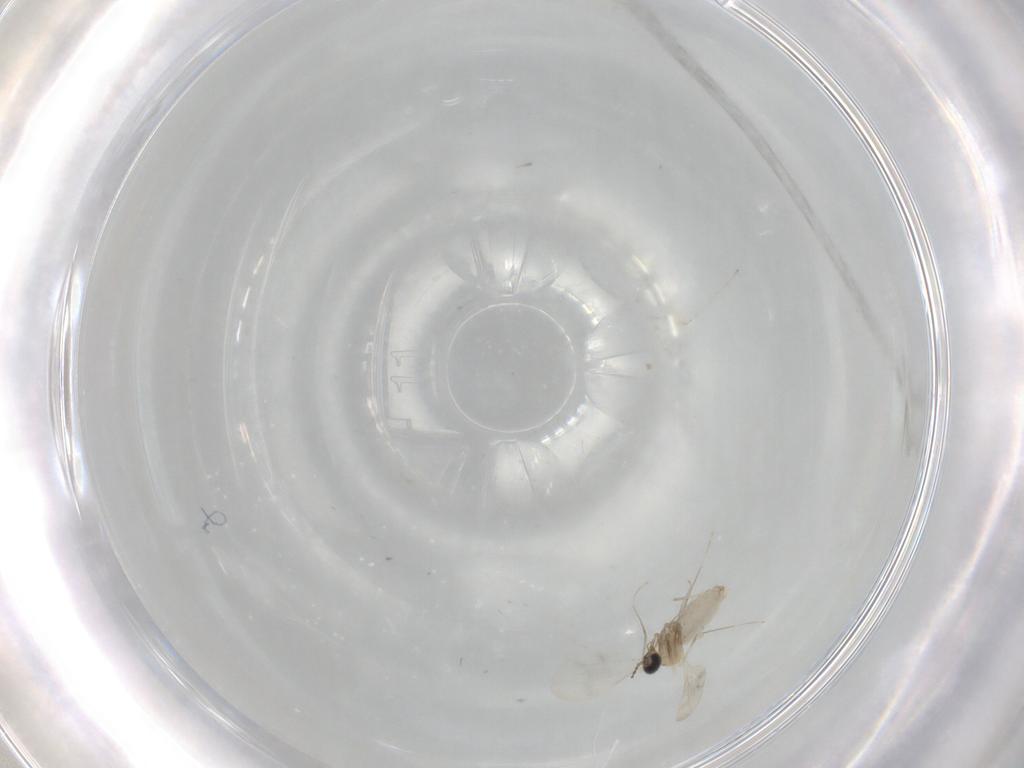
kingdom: Animalia
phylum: Arthropoda
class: Insecta
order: Diptera
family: Phoridae
